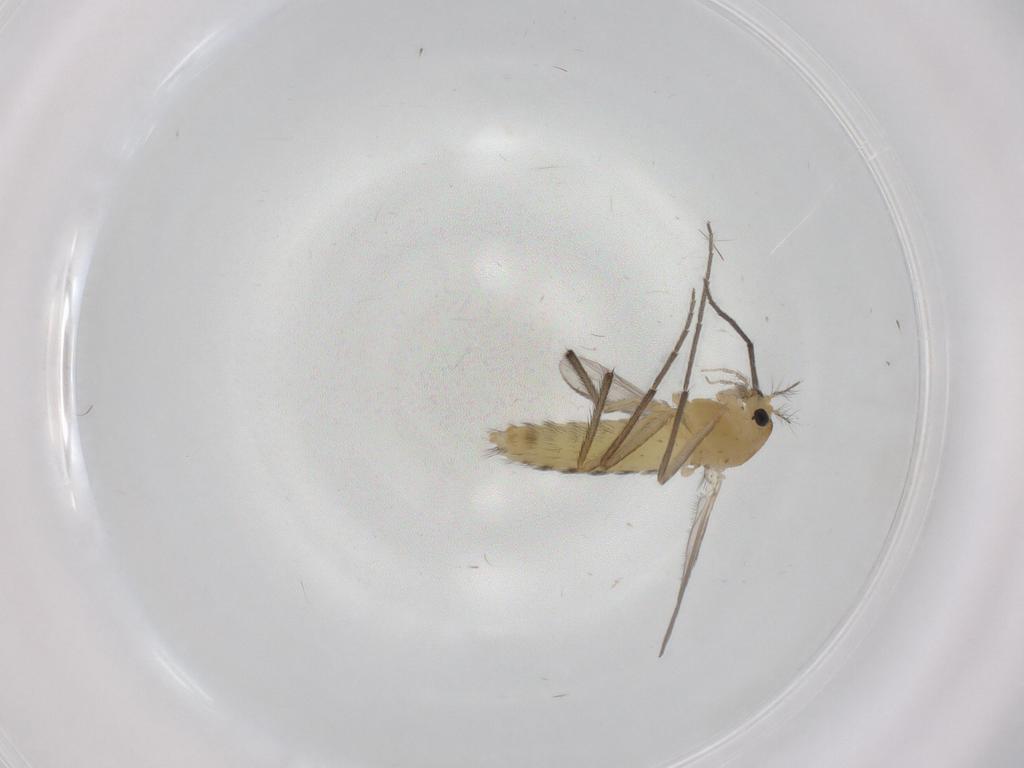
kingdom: Animalia
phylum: Arthropoda
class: Insecta
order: Diptera
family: Chironomidae
